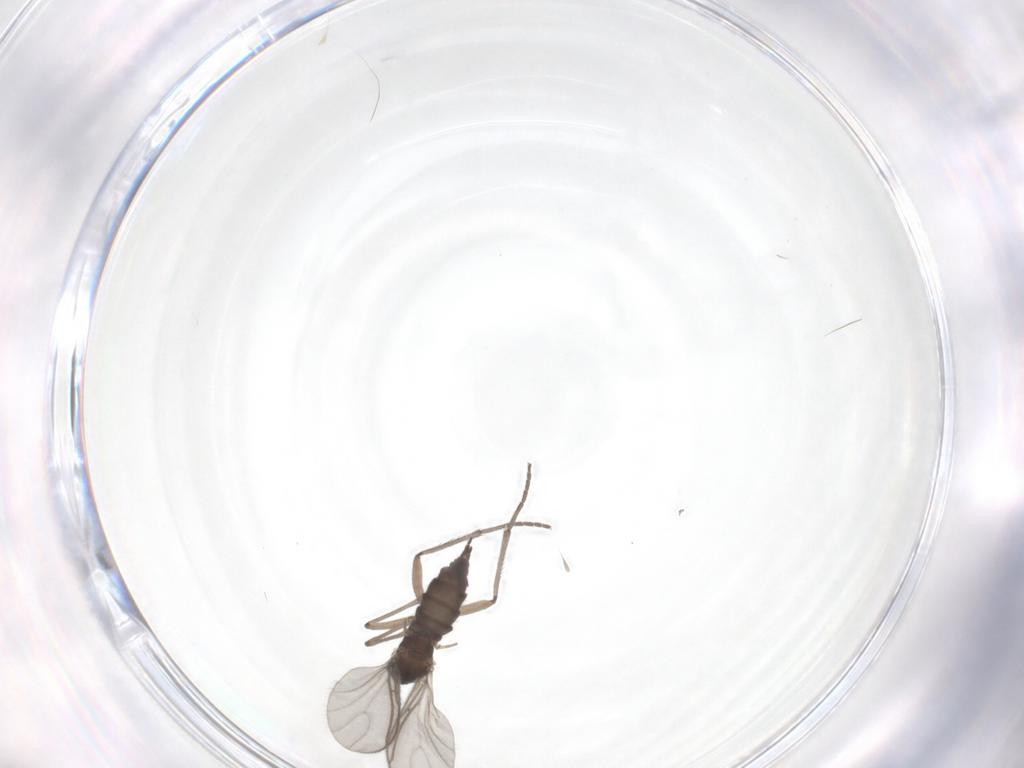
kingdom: Animalia
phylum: Arthropoda
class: Insecta
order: Diptera
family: Sciaridae
